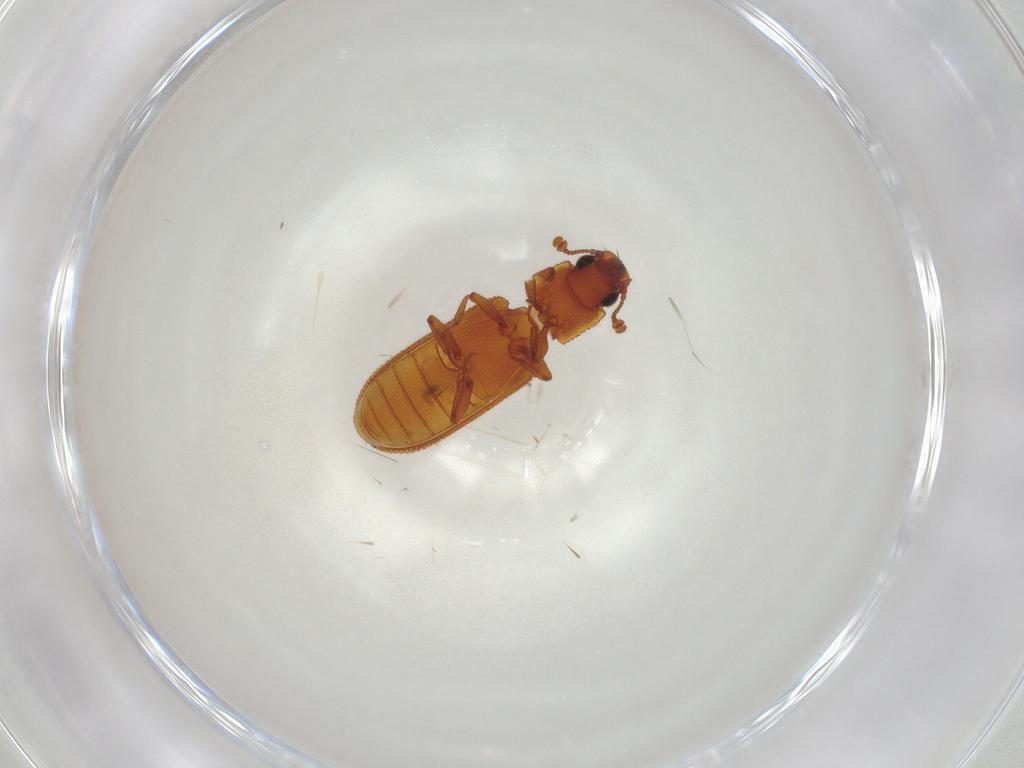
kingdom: Animalia
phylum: Arthropoda
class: Insecta
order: Coleoptera
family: Zopheridae
